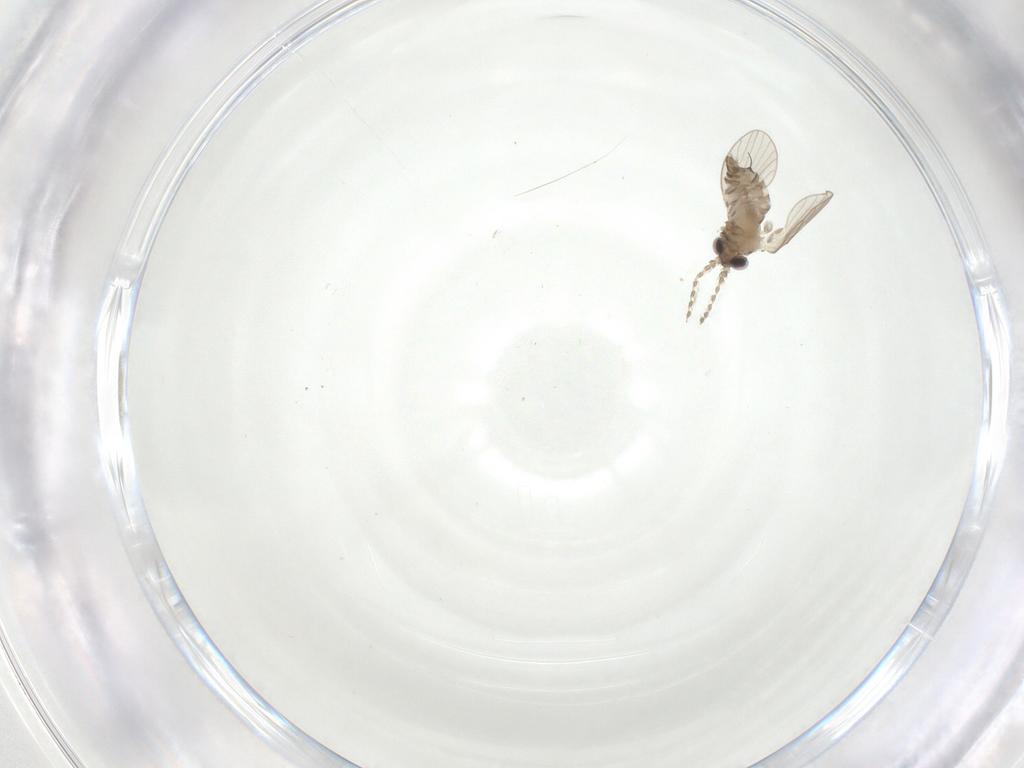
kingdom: Animalia
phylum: Arthropoda
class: Insecta
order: Diptera
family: Psychodidae
